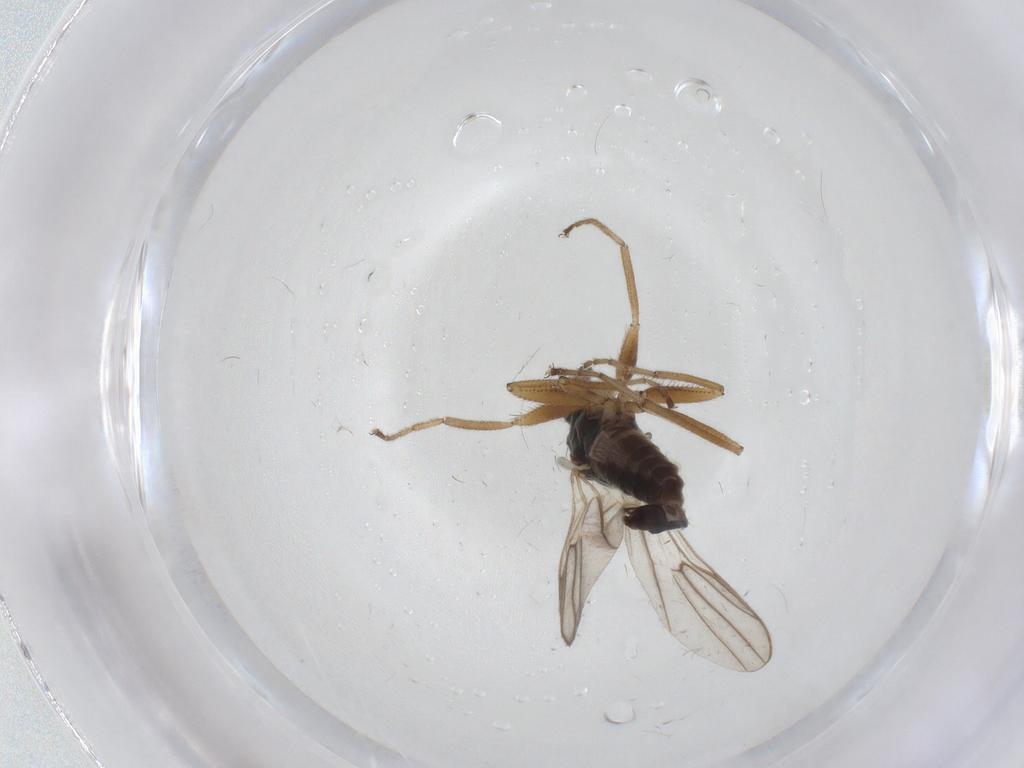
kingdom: Animalia
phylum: Arthropoda
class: Insecta
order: Diptera
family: Hybotidae
